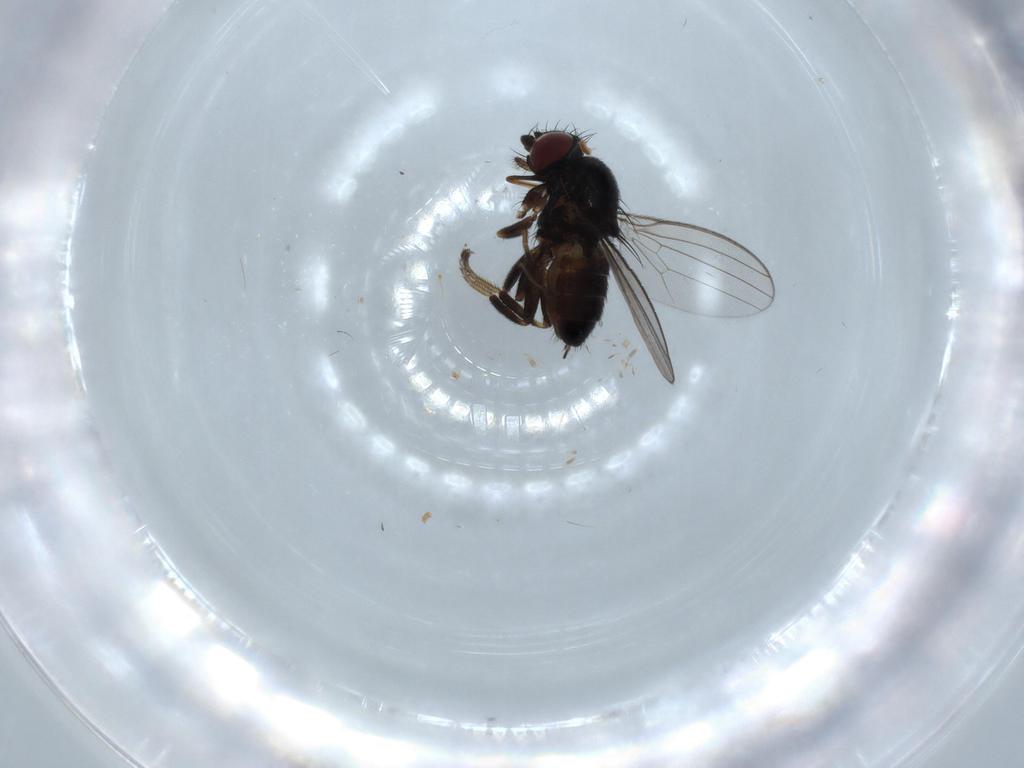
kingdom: Animalia
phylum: Arthropoda
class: Insecta
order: Diptera
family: Milichiidae
